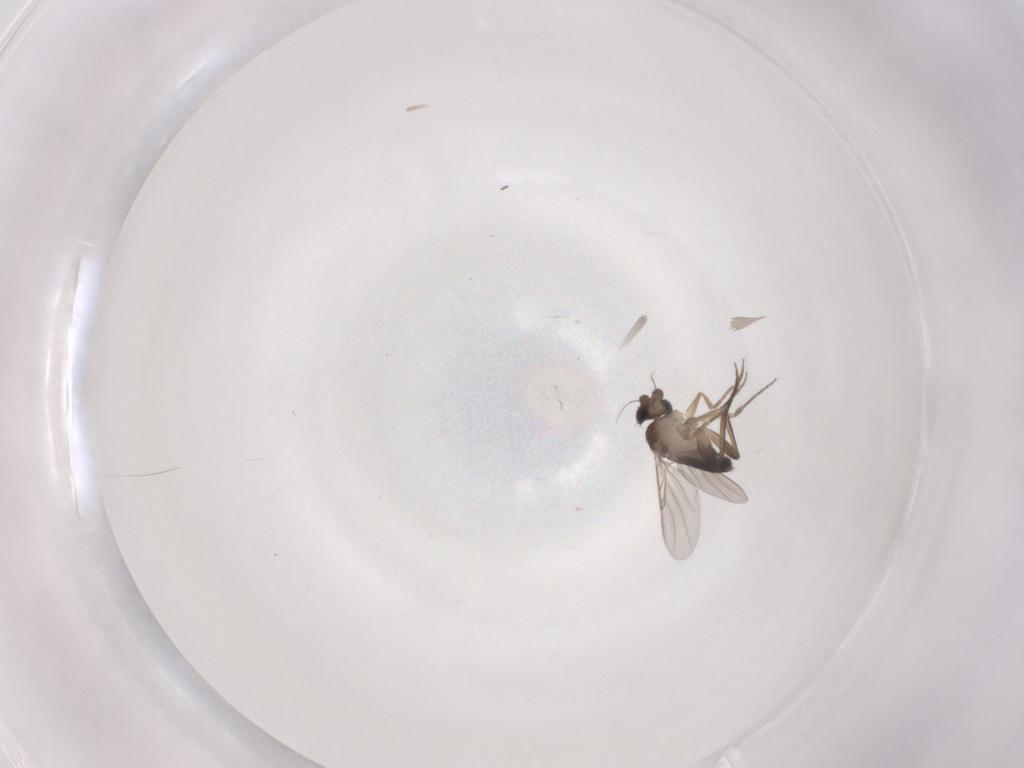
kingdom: Animalia
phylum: Arthropoda
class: Insecta
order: Diptera
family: Phoridae
